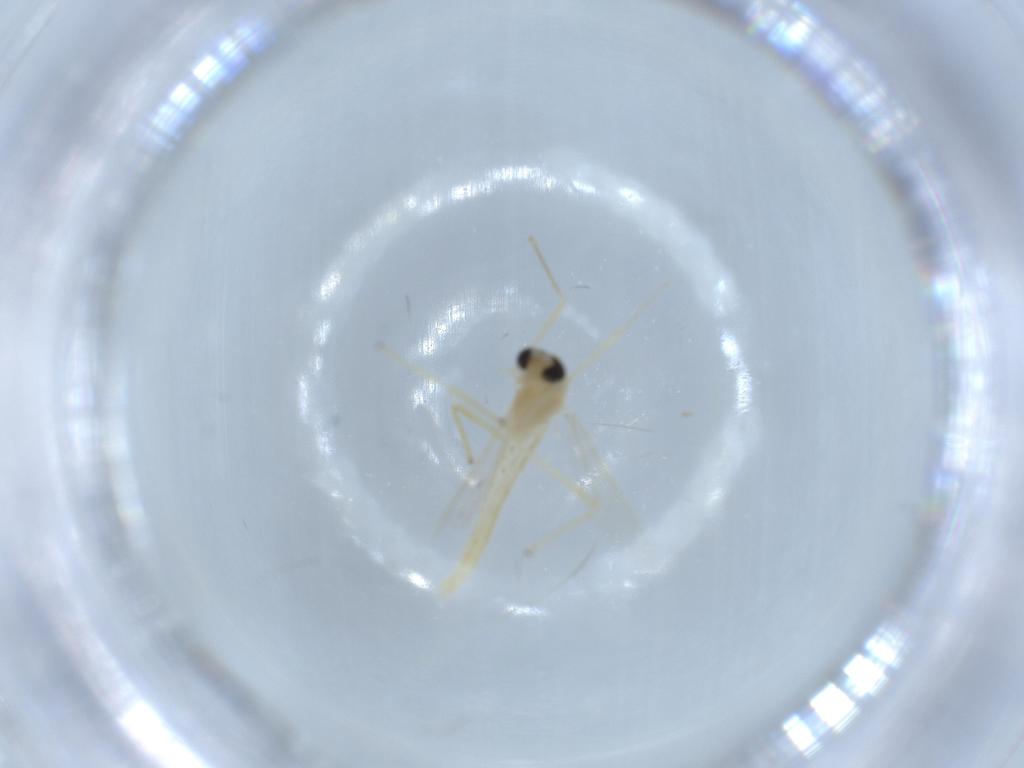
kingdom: Animalia
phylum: Arthropoda
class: Insecta
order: Diptera
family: Chironomidae
